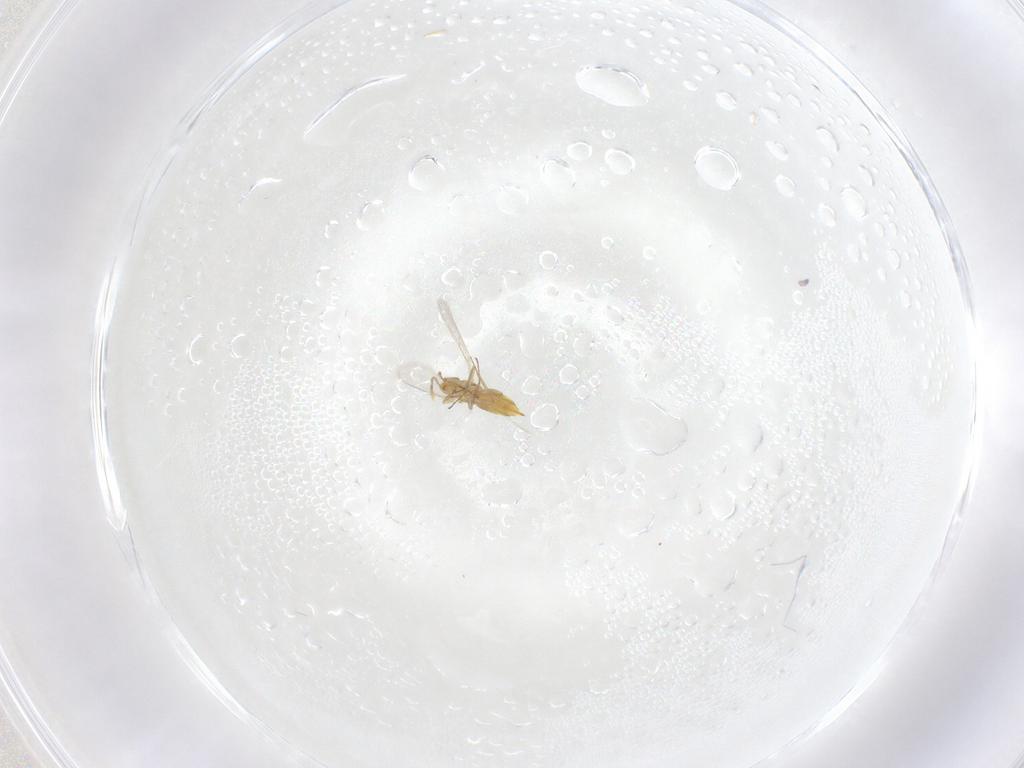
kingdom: Animalia
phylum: Arthropoda
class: Insecta
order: Hymenoptera
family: Aphelinidae
